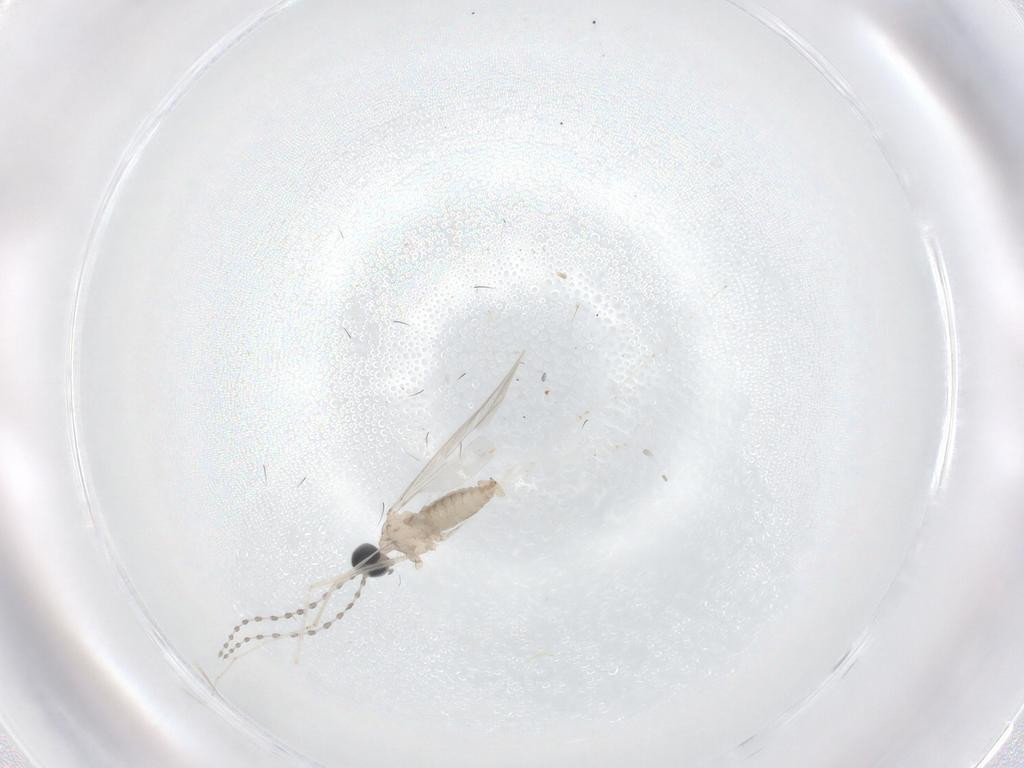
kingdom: Animalia
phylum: Arthropoda
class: Insecta
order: Diptera
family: Cecidomyiidae
